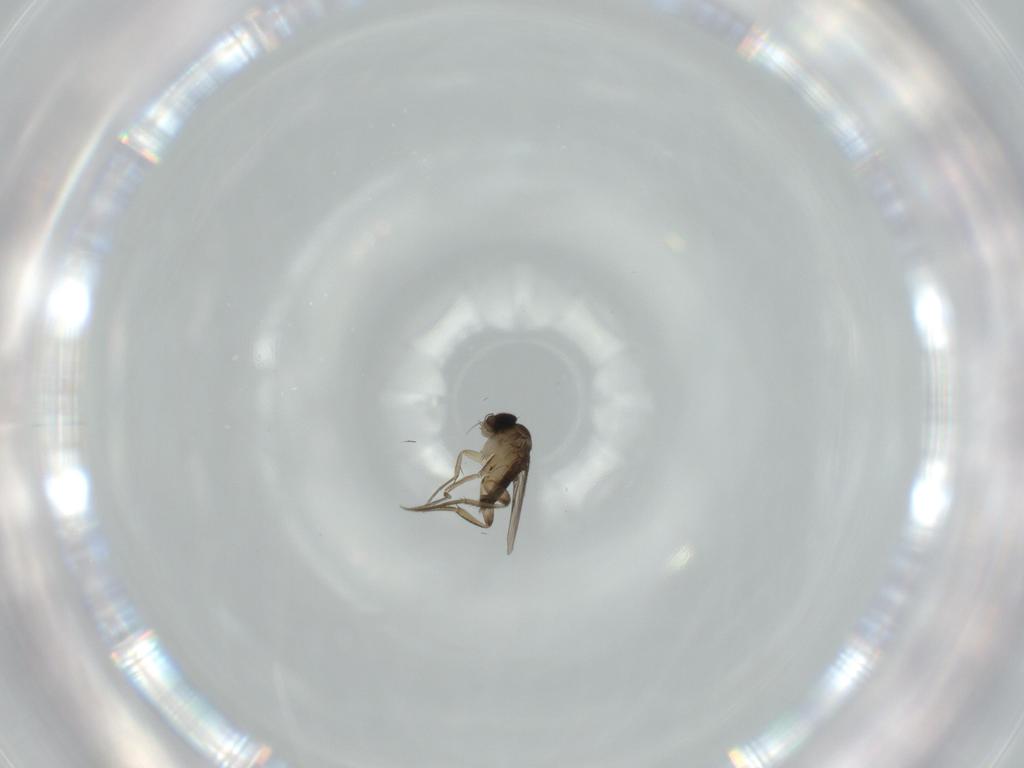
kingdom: Animalia
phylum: Arthropoda
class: Insecta
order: Diptera
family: Phoridae
